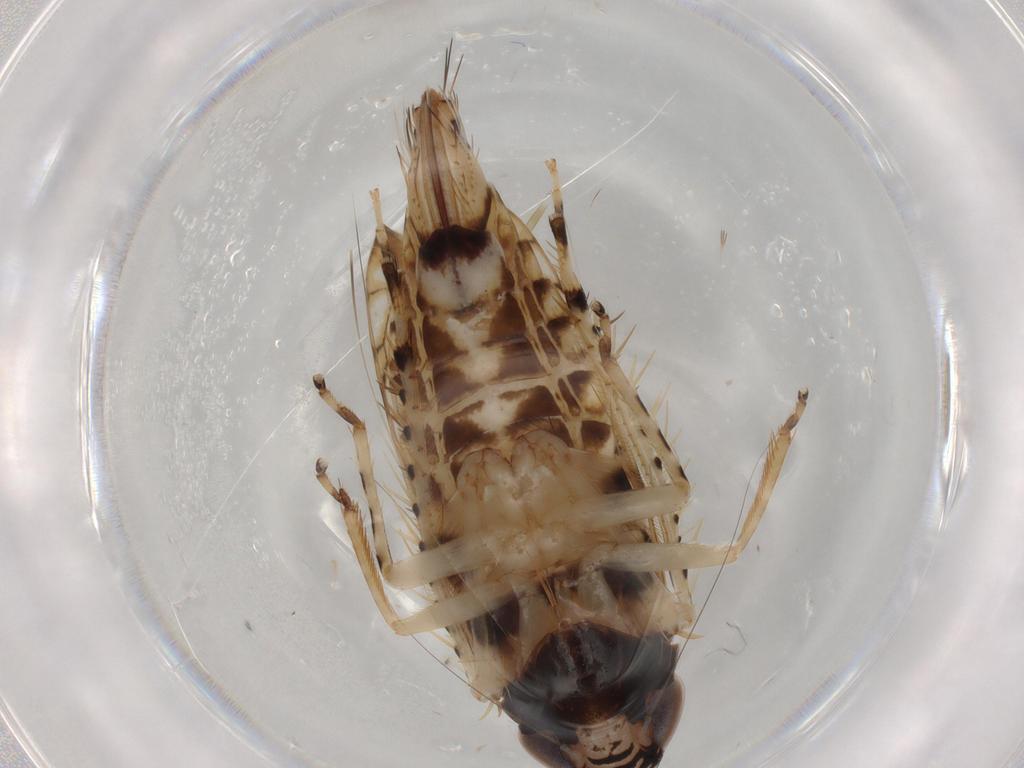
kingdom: Animalia
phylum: Arthropoda
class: Insecta
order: Hemiptera
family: Cicadellidae
